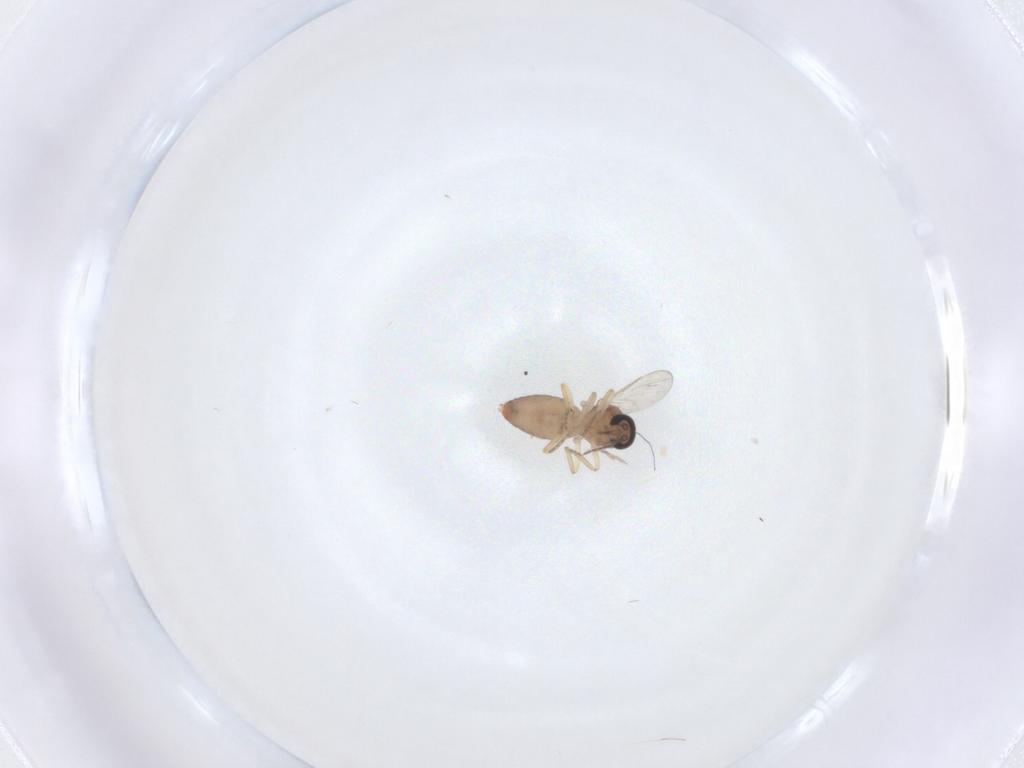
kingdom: Animalia
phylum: Arthropoda
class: Insecta
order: Diptera
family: Ceratopogonidae
